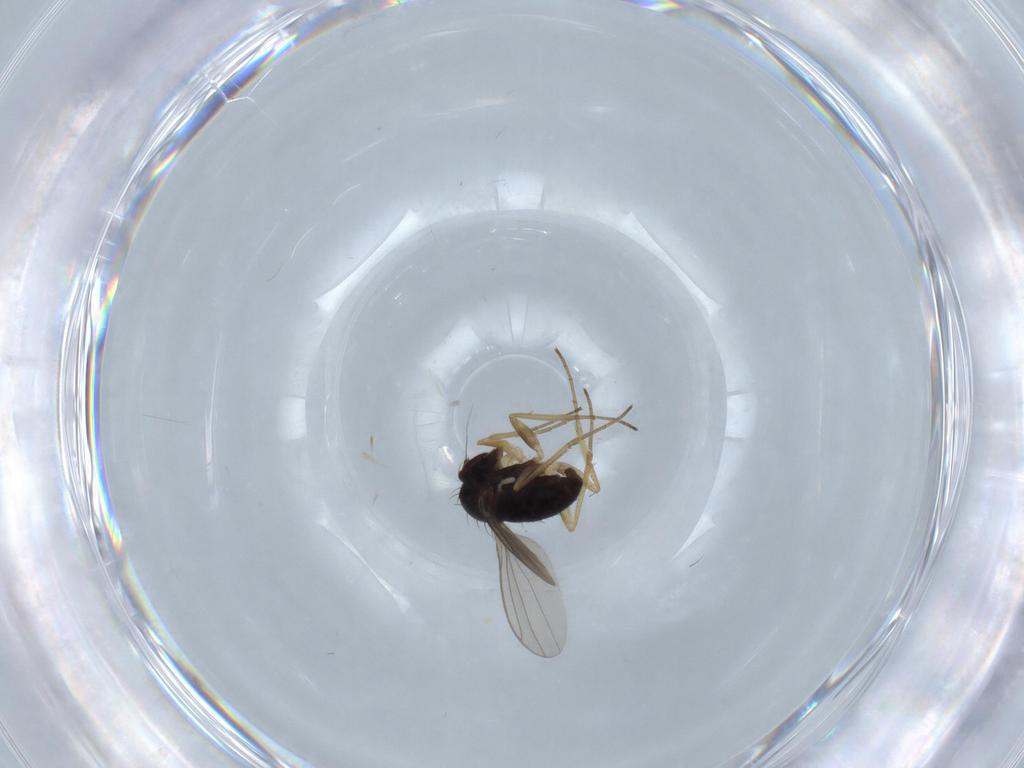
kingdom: Animalia
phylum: Arthropoda
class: Insecta
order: Diptera
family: Dolichopodidae
